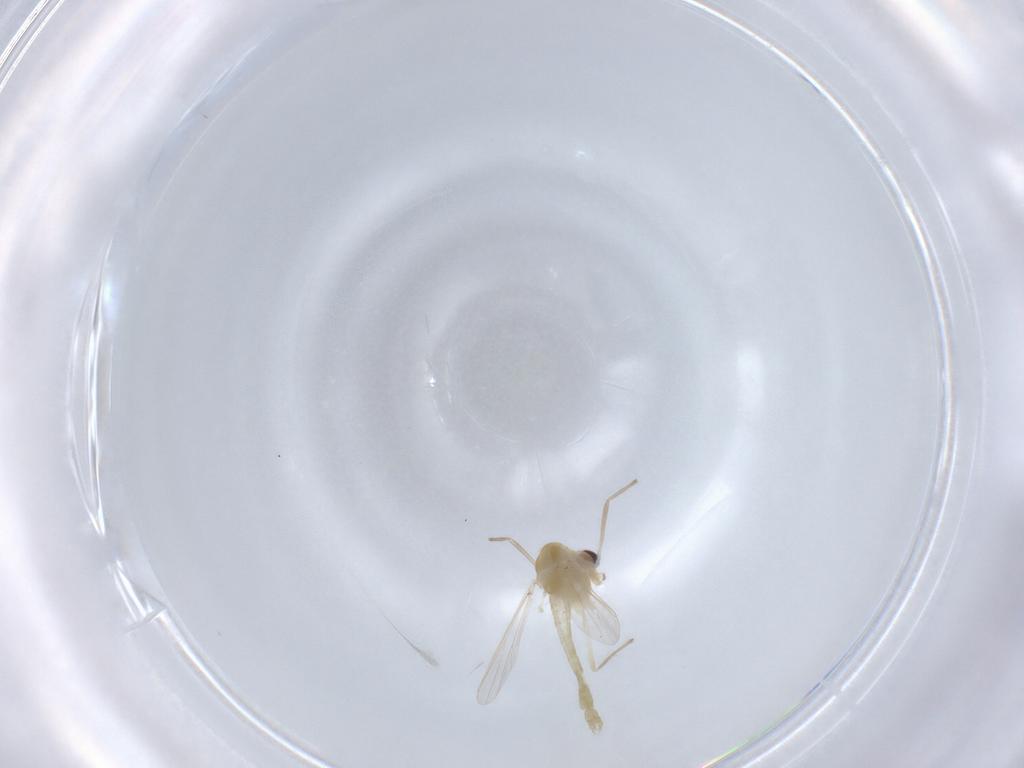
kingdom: Animalia
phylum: Arthropoda
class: Insecta
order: Diptera
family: Chironomidae
